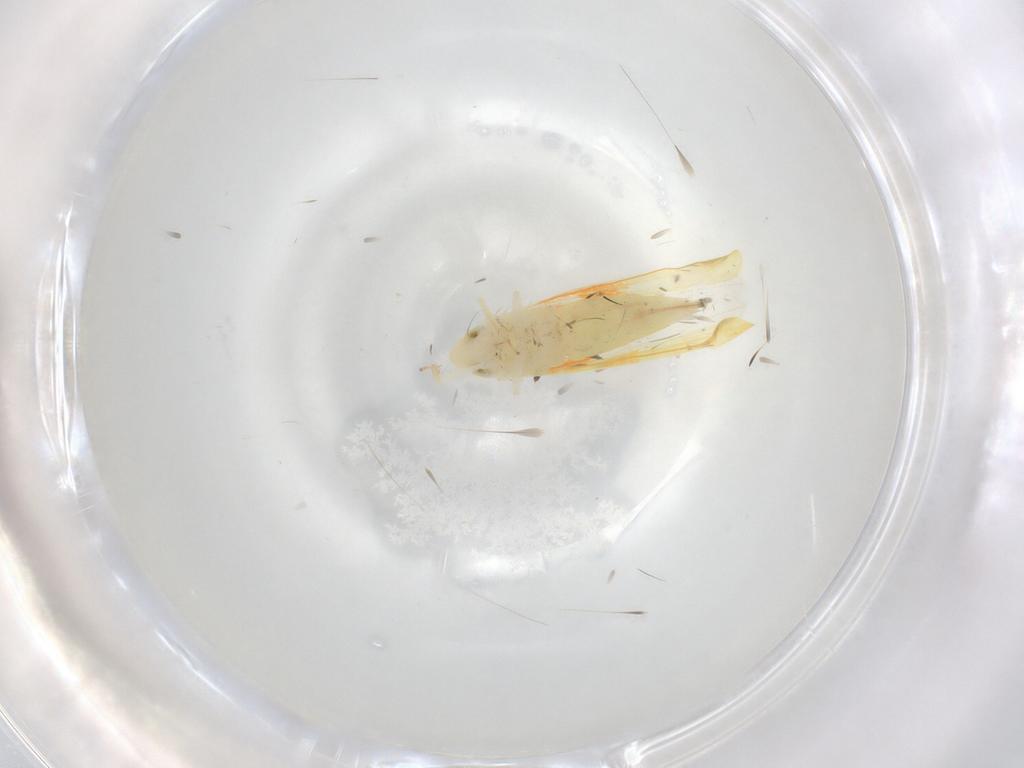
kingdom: Animalia
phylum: Arthropoda
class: Insecta
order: Hemiptera
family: Cicadellidae
